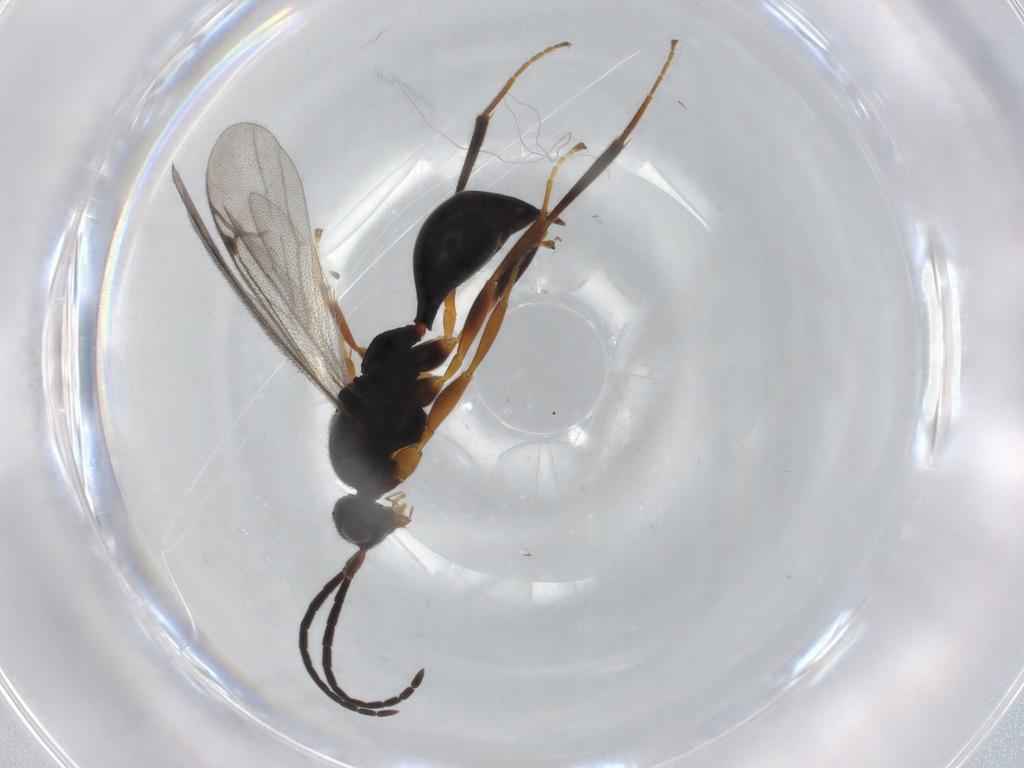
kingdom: Animalia
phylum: Arthropoda
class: Insecta
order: Hymenoptera
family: Proctotrupidae
